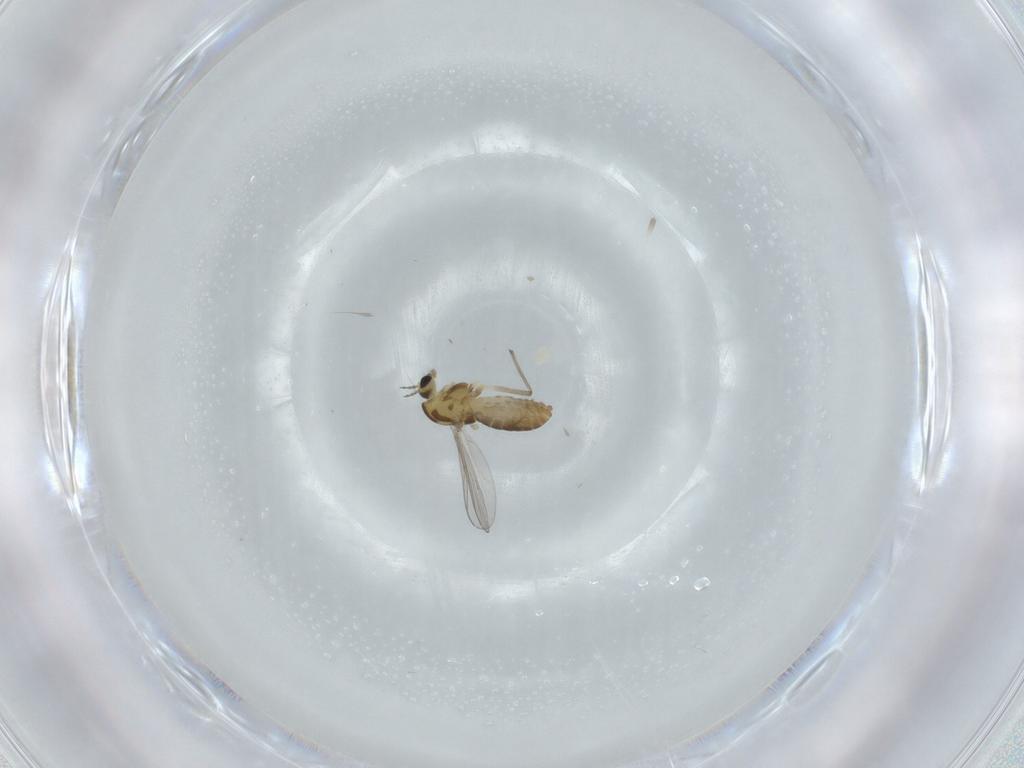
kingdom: Animalia
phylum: Arthropoda
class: Insecta
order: Diptera
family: Chironomidae
